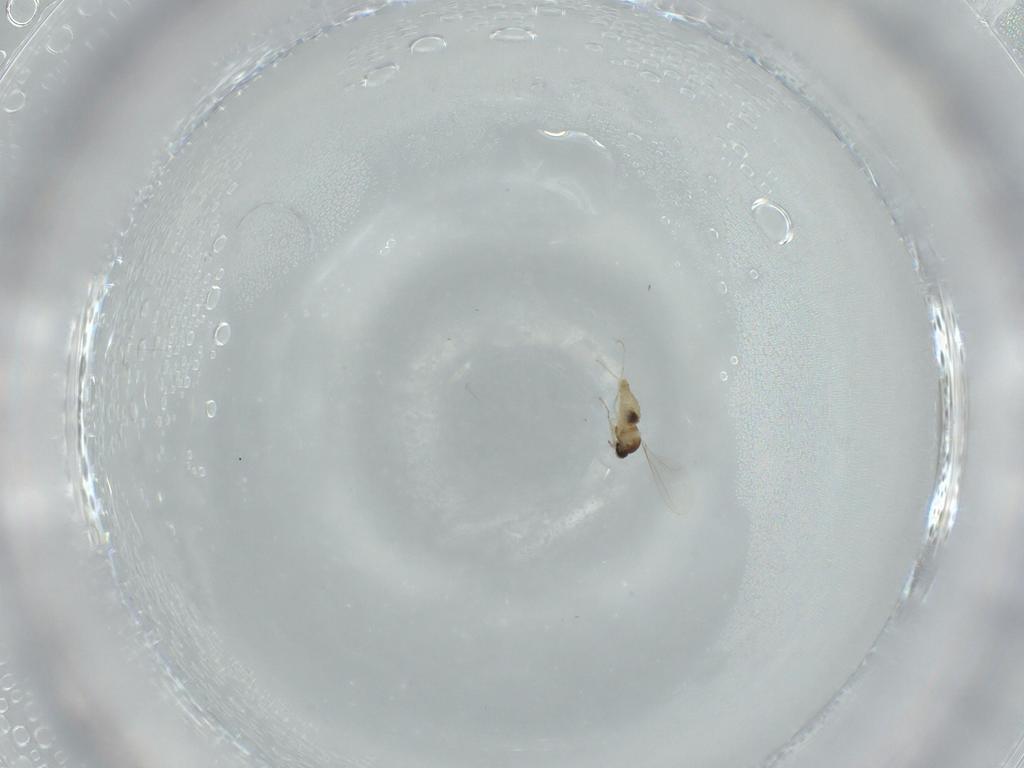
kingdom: Animalia
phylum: Arthropoda
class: Insecta
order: Diptera
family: Cecidomyiidae
